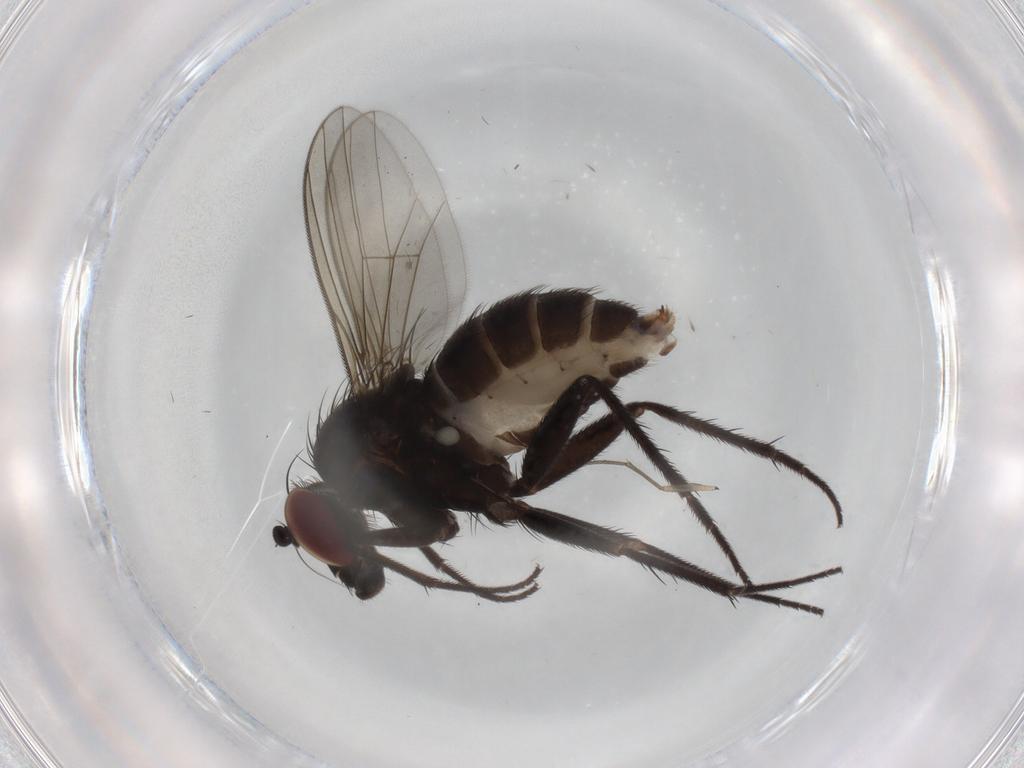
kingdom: Animalia
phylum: Arthropoda
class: Insecta
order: Diptera
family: Dolichopodidae
